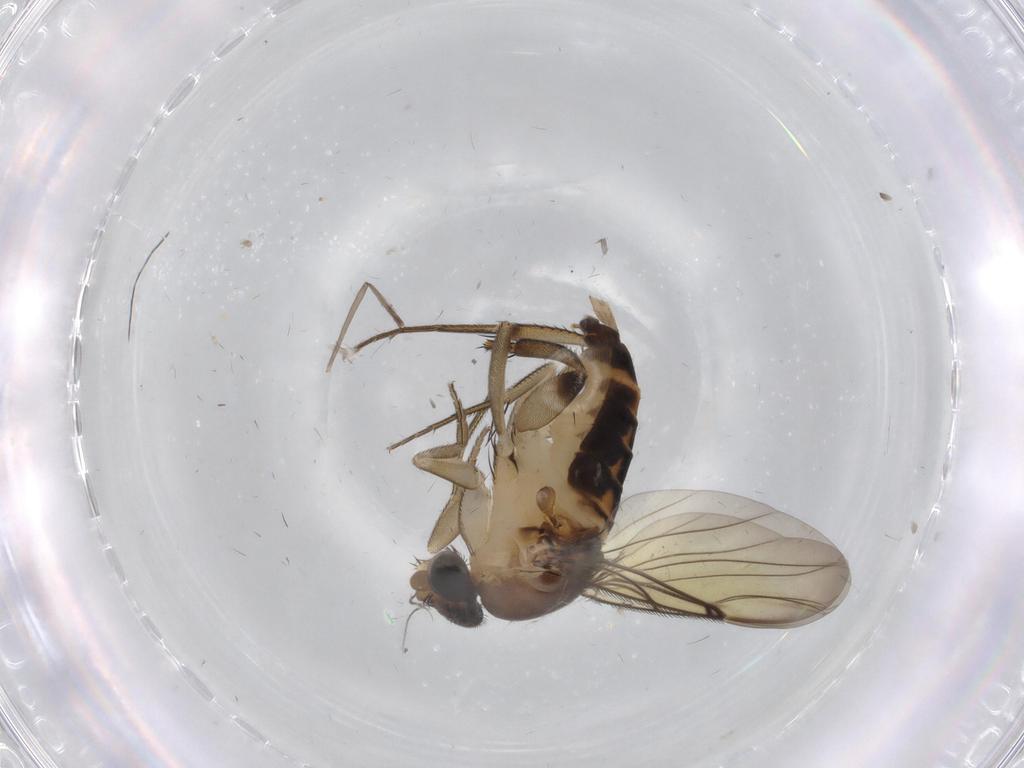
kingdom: Animalia
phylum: Arthropoda
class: Insecta
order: Diptera
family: Phoridae
